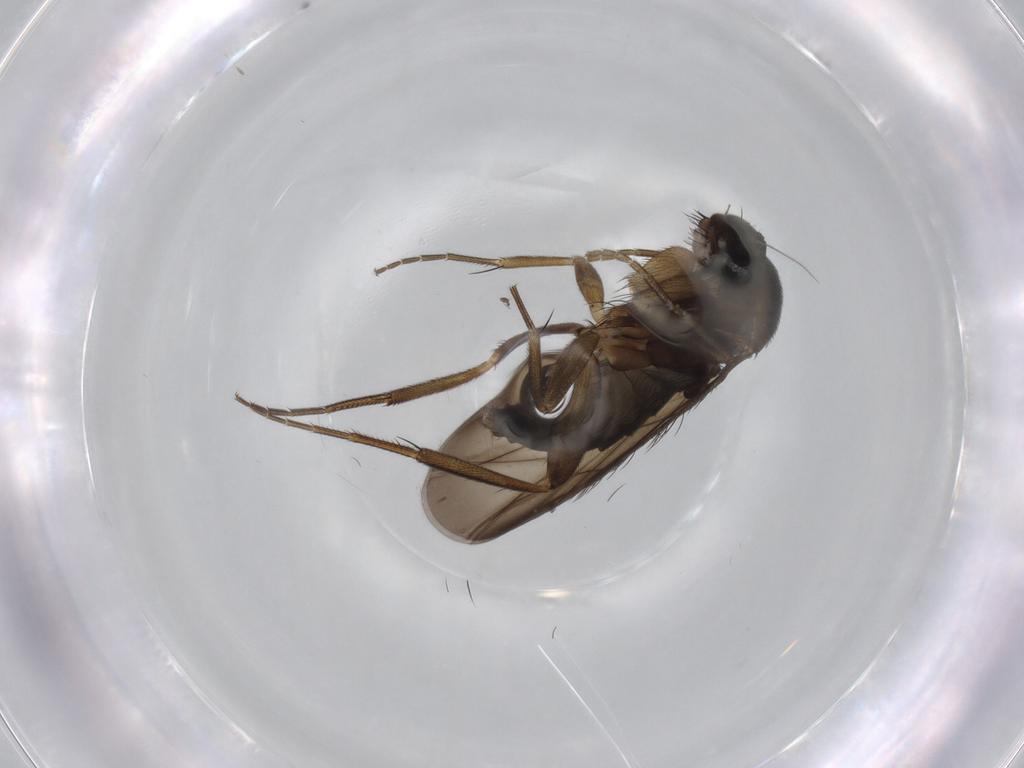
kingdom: Animalia
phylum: Arthropoda
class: Insecta
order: Diptera
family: Phoridae
